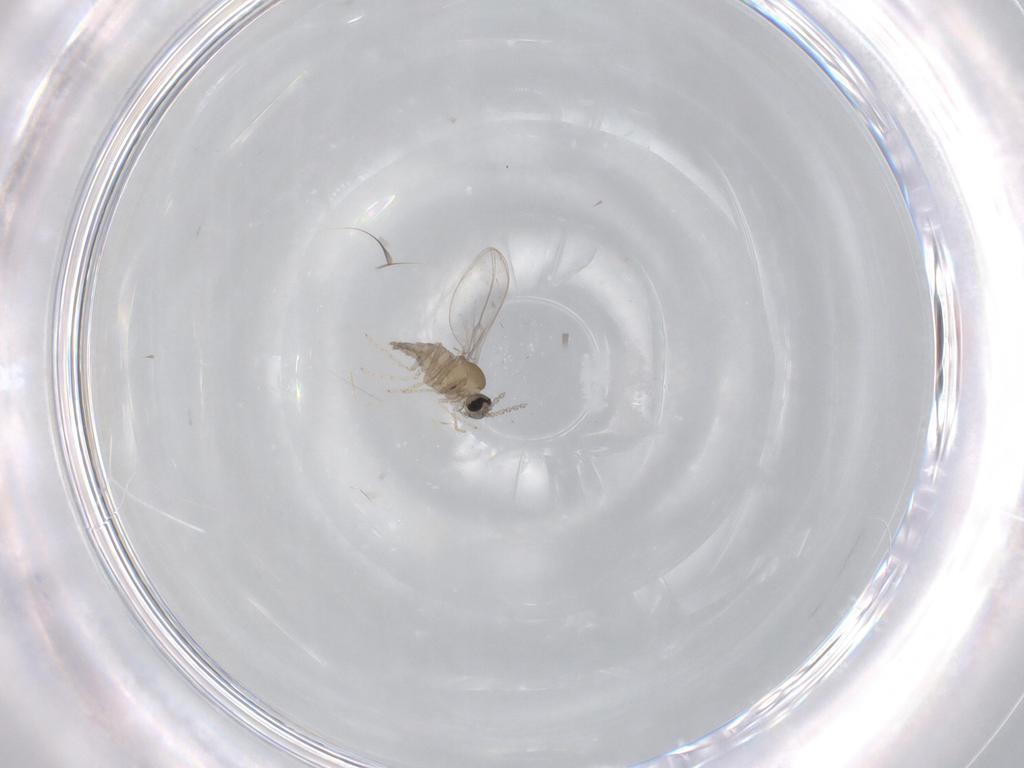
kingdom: Animalia
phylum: Arthropoda
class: Insecta
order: Diptera
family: Cecidomyiidae
